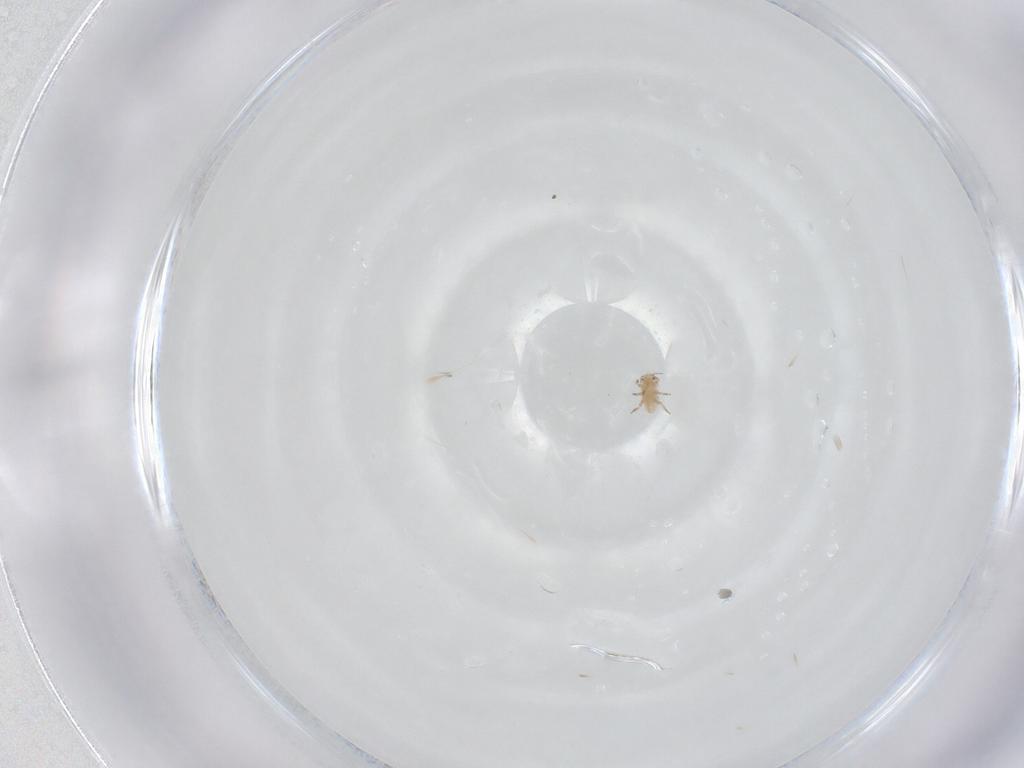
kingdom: Animalia
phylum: Arthropoda
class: Insecta
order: Hemiptera
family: Aphididae
